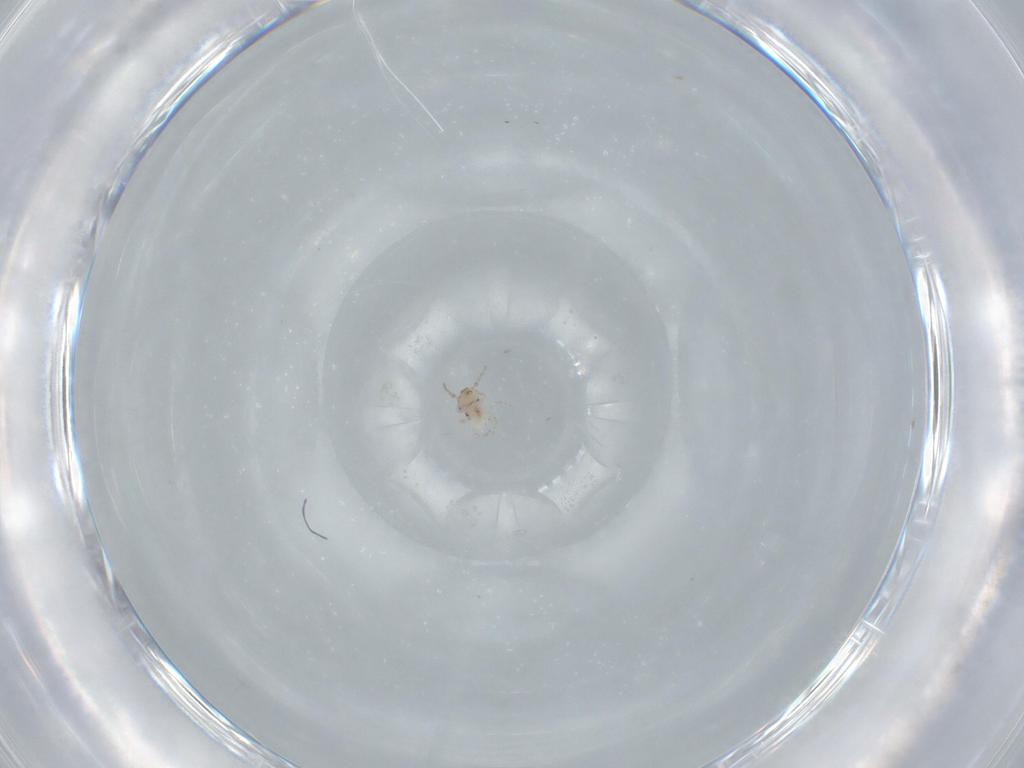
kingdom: Animalia
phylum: Arthropoda
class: Insecta
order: Psocodea
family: Lepidopsocidae
